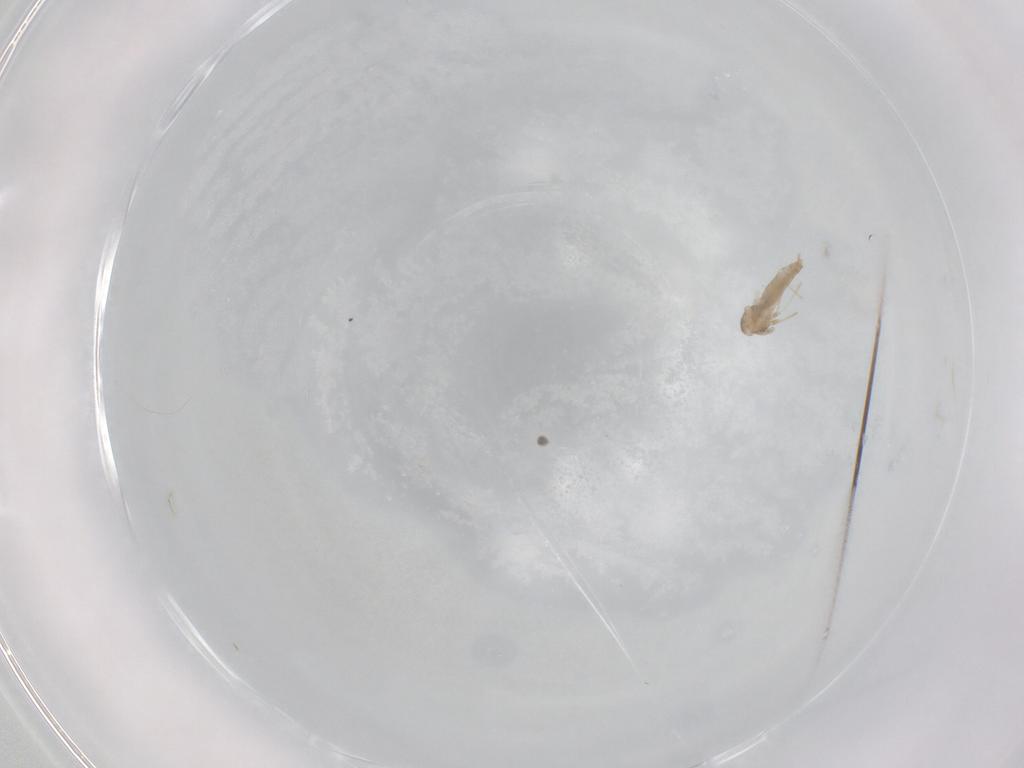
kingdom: Animalia
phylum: Arthropoda
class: Insecta
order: Diptera
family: Cecidomyiidae
